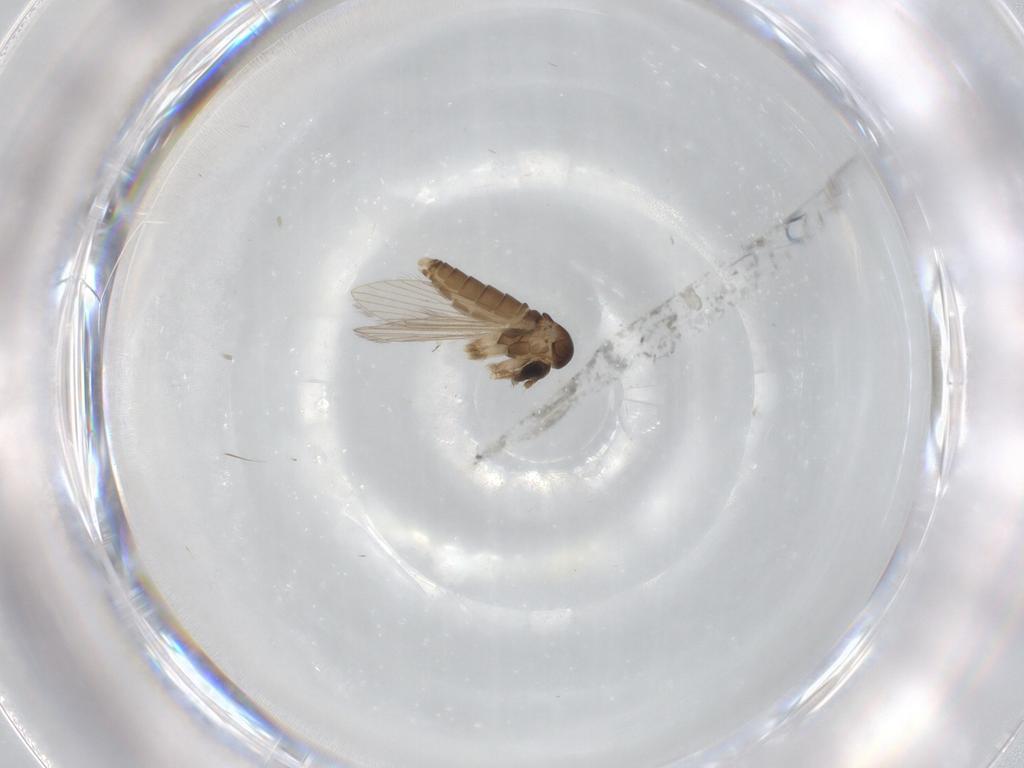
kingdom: Animalia
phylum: Arthropoda
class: Insecta
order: Diptera
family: Psychodidae
